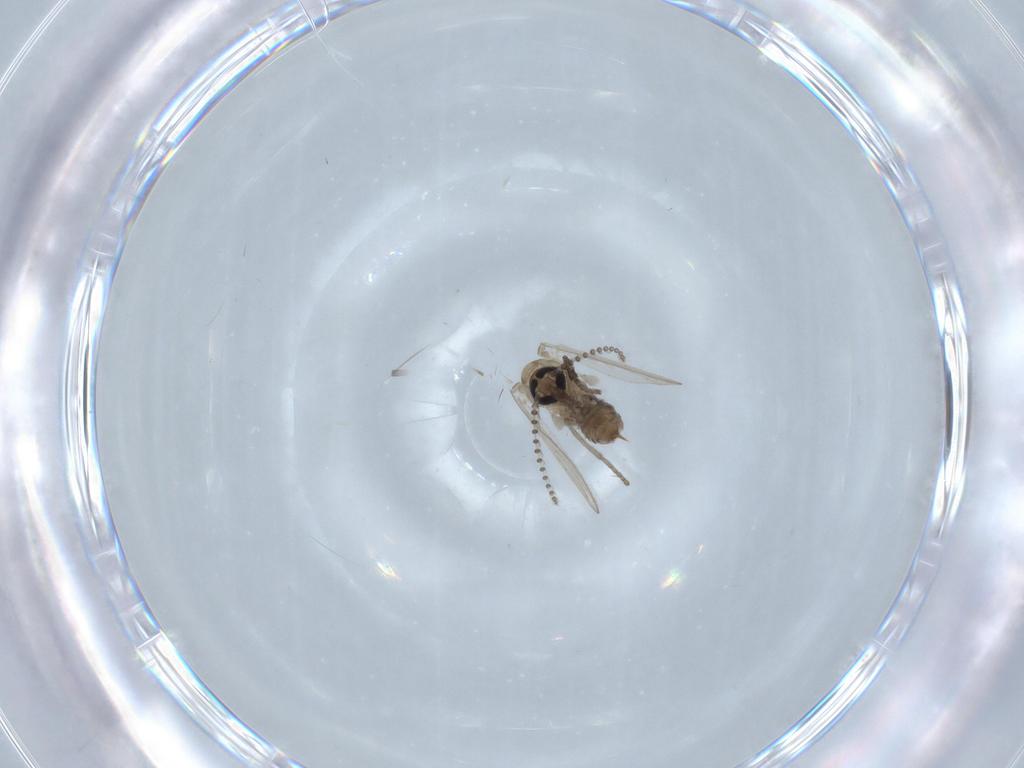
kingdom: Animalia
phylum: Arthropoda
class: Insecta
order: Diptera
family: Psychodidae
